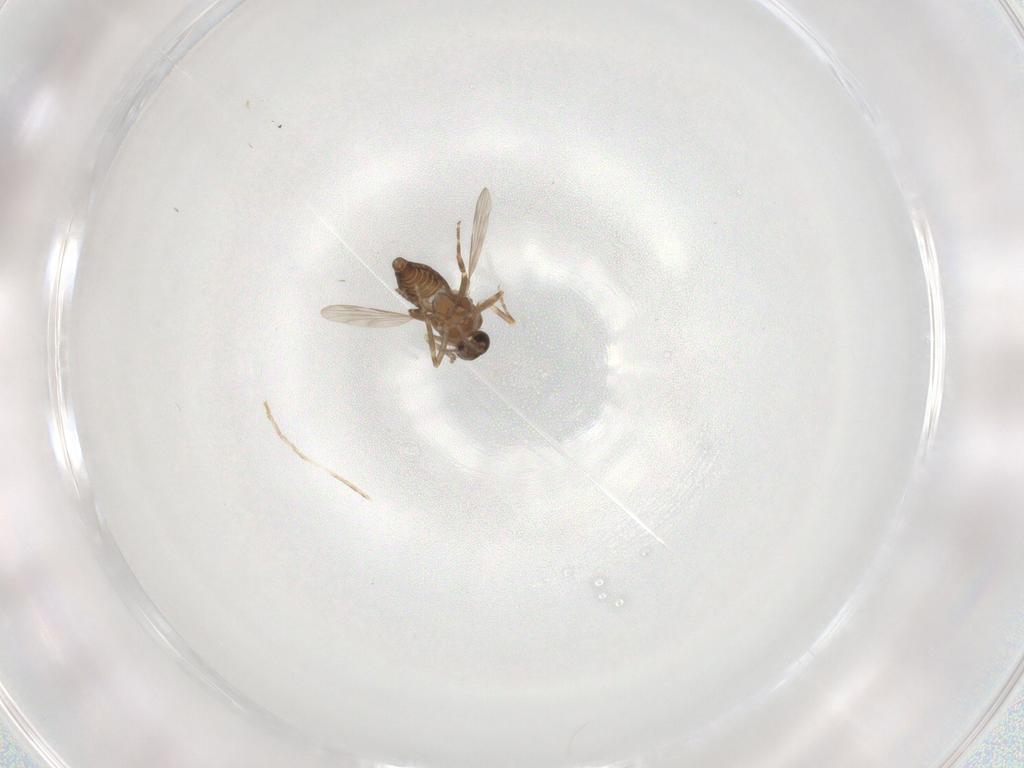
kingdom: Animalia
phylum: Arthropoda
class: Insecta
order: Diptera
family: Ceratopogonidae
